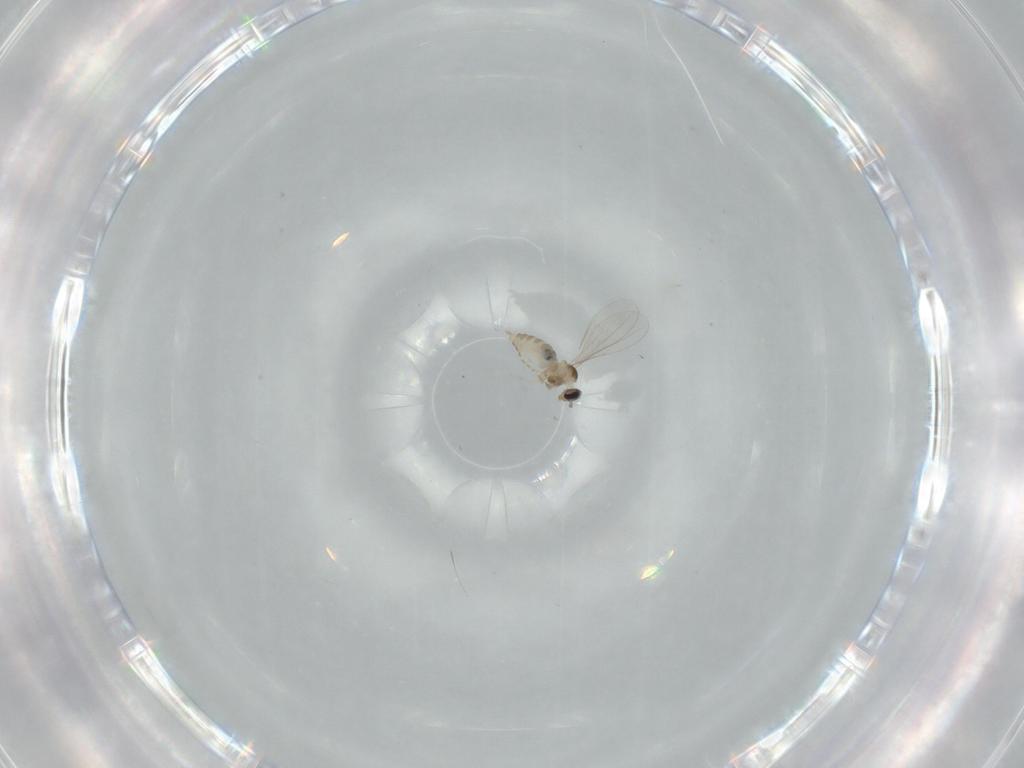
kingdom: Animalia
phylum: Arthropoda
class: Insecta
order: Diptera
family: Cecidomyiidae
